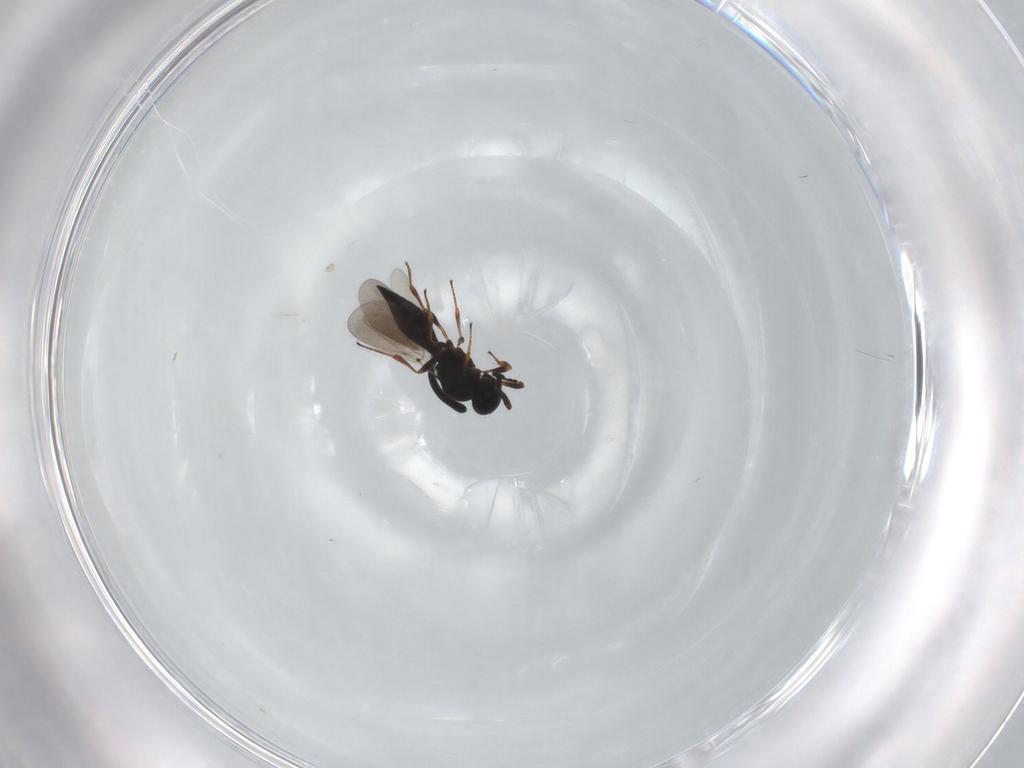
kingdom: Animalia
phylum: Arthropoda
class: Insecta
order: Hymenoptera
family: Platygastridae
